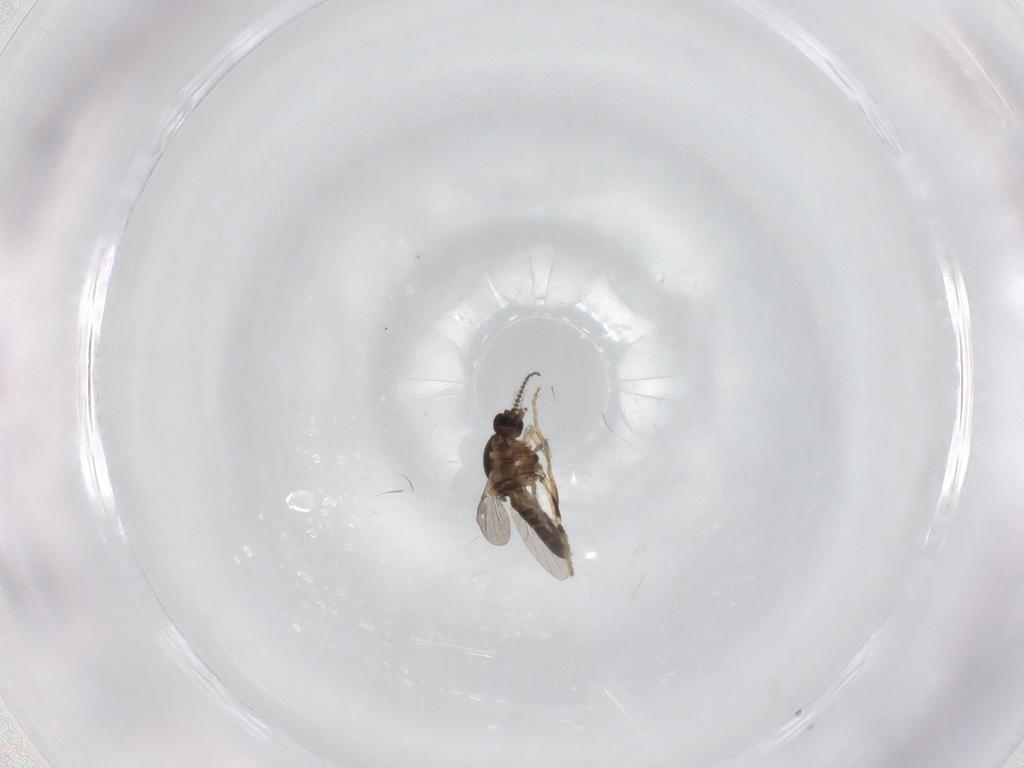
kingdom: Animalia
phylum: Arthropoda
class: Insecta
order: Diptera
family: Ceratopogonidae
